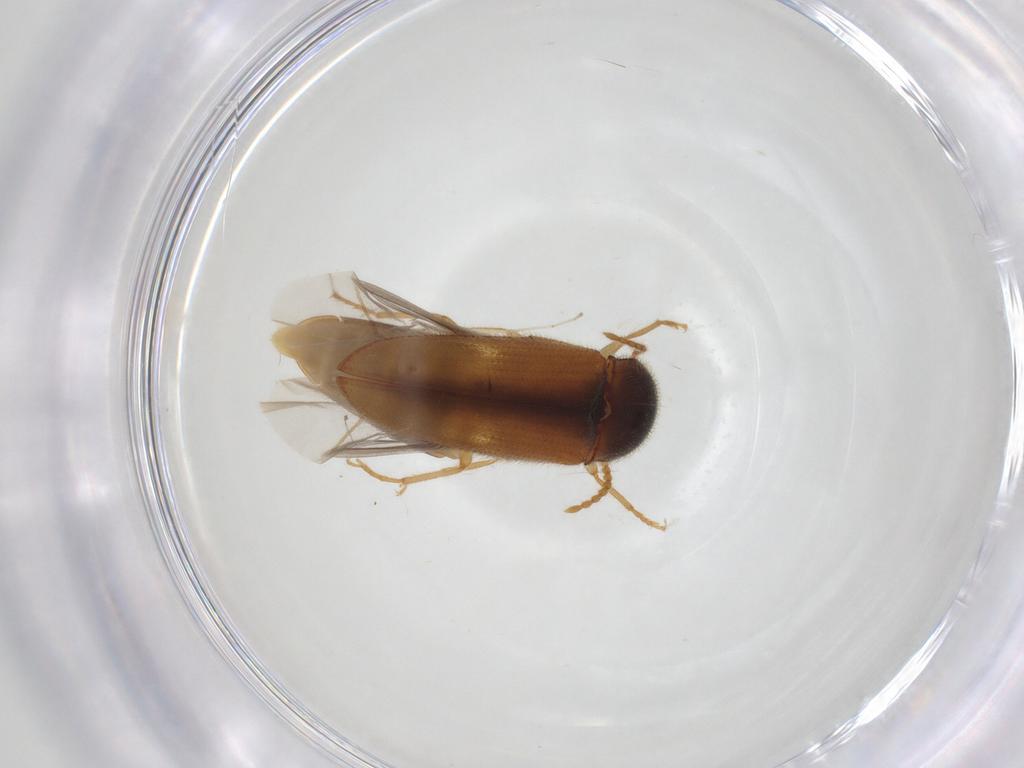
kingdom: Animalia
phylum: Arthropoda
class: Insecta
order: Coleoptera
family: Elateridae
